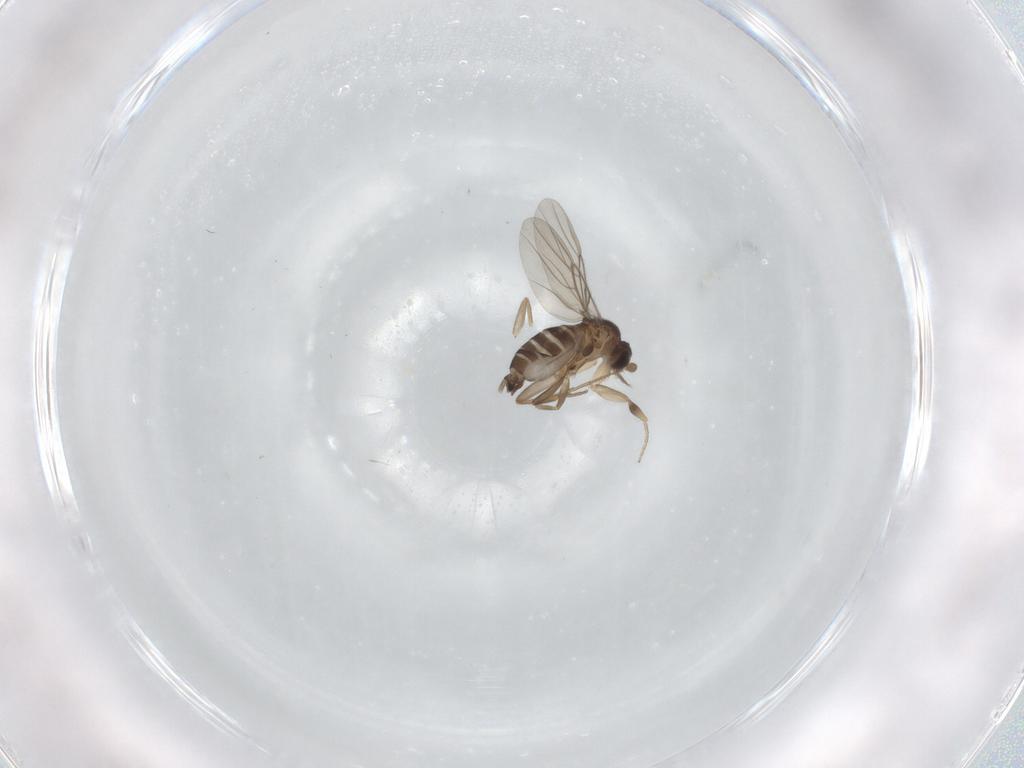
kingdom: Animalia
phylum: Arthropoda
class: Insecta
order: Diptera
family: Phoridae
